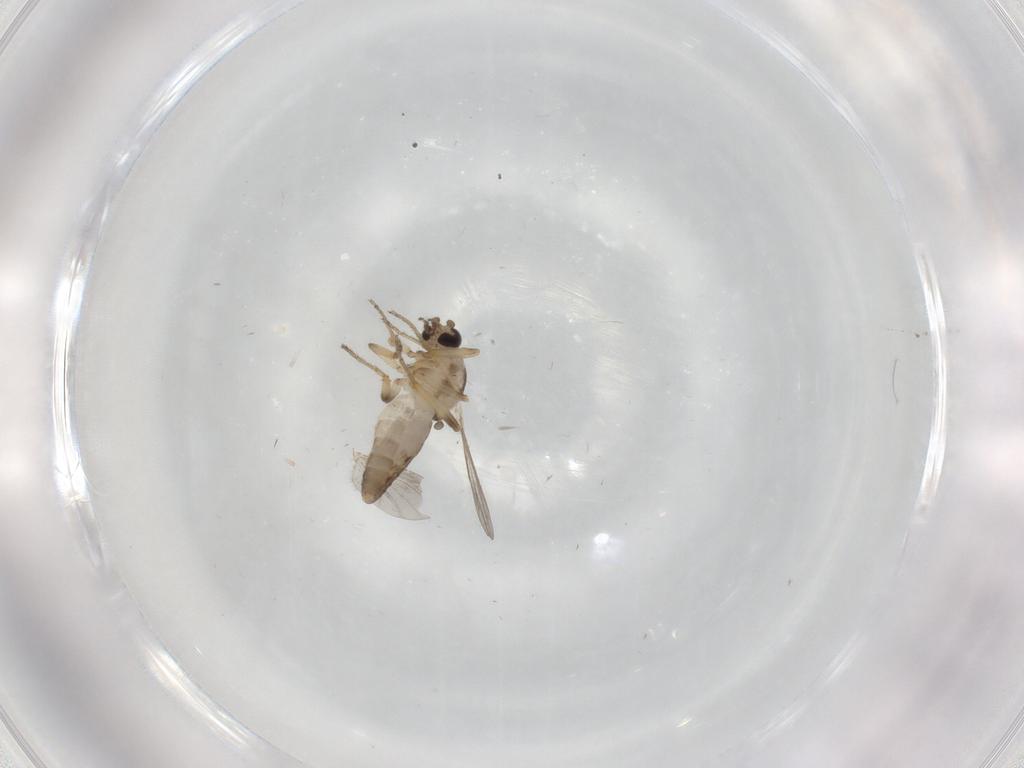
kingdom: Animalia
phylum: Arthropoda
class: Insecta
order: Diptera
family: Ceratopogonidae
